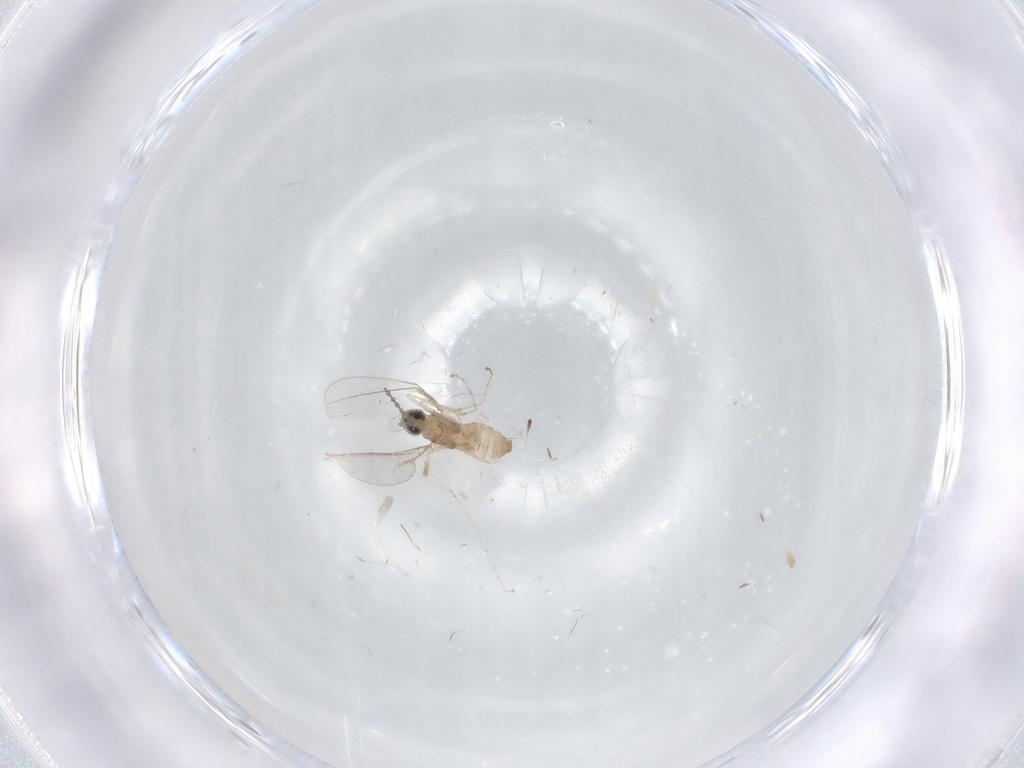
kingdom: Animalia
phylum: Arthropoda
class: Insecta
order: Diptera
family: Cecidomyiidae
